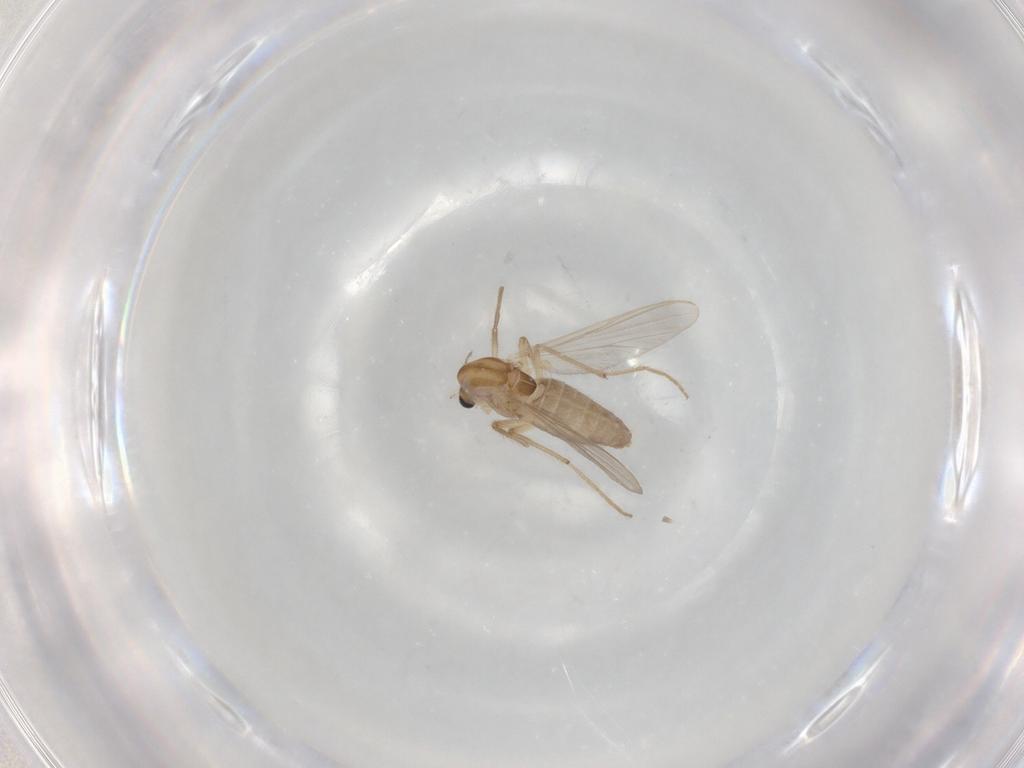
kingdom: Animalia
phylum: Arthropoda
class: Insecta
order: Diptera
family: Chironomidae
